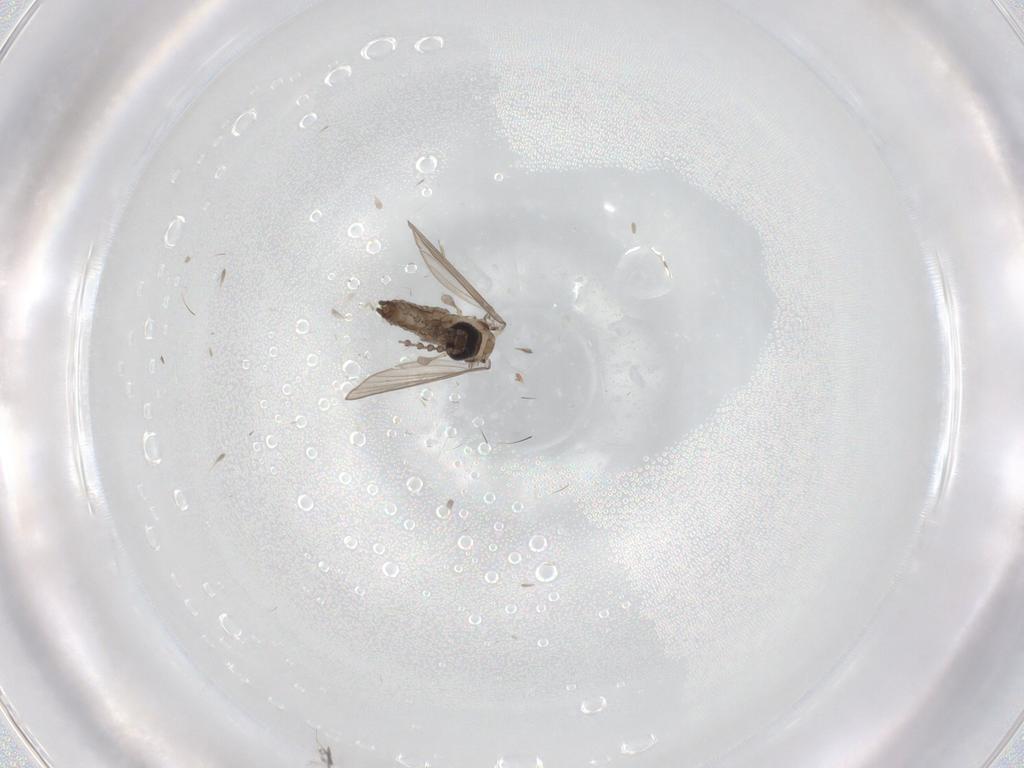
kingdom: Animalia
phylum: Arthropoda
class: Insecta
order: Diptera
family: Psychodidae
